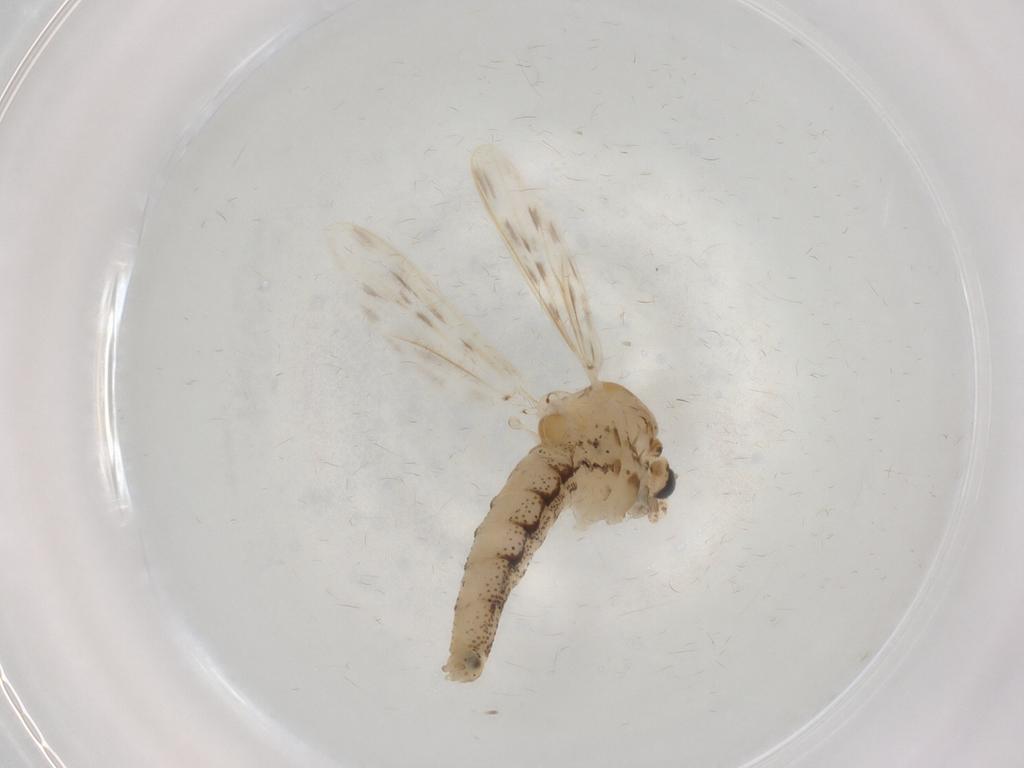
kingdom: Animalia
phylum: Arthropoda
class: Insecta
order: Diptera
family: Chaoboridae
